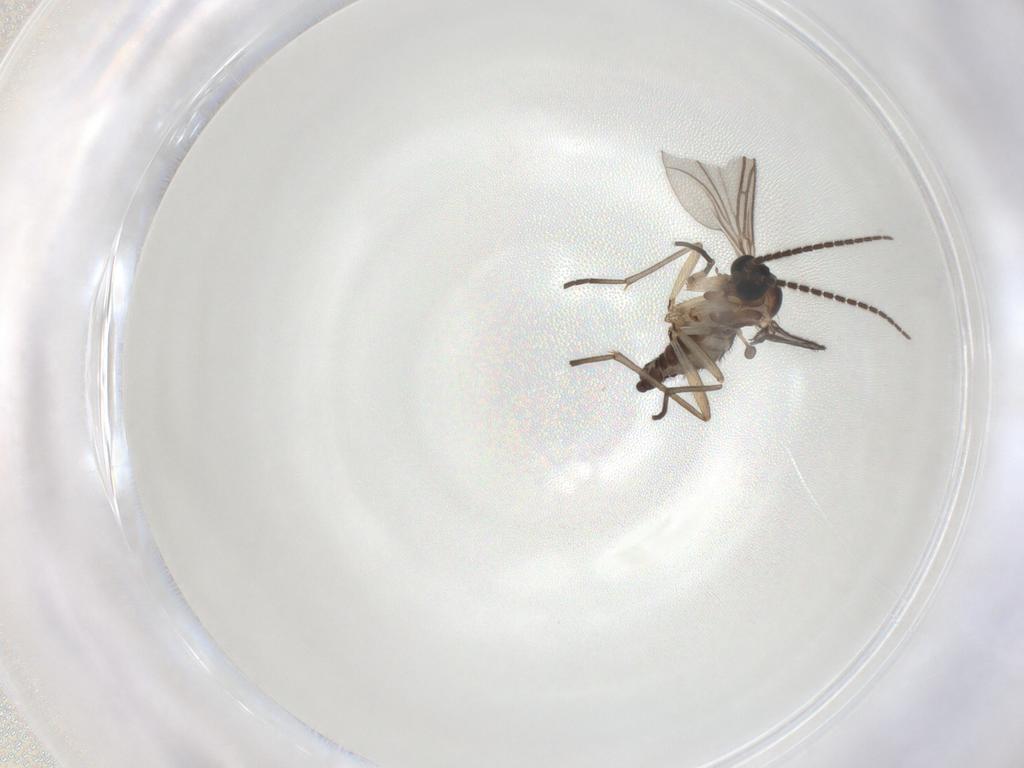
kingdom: Animalia
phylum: Arthropoda
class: Insecta
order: Diptera
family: Sciaridae
